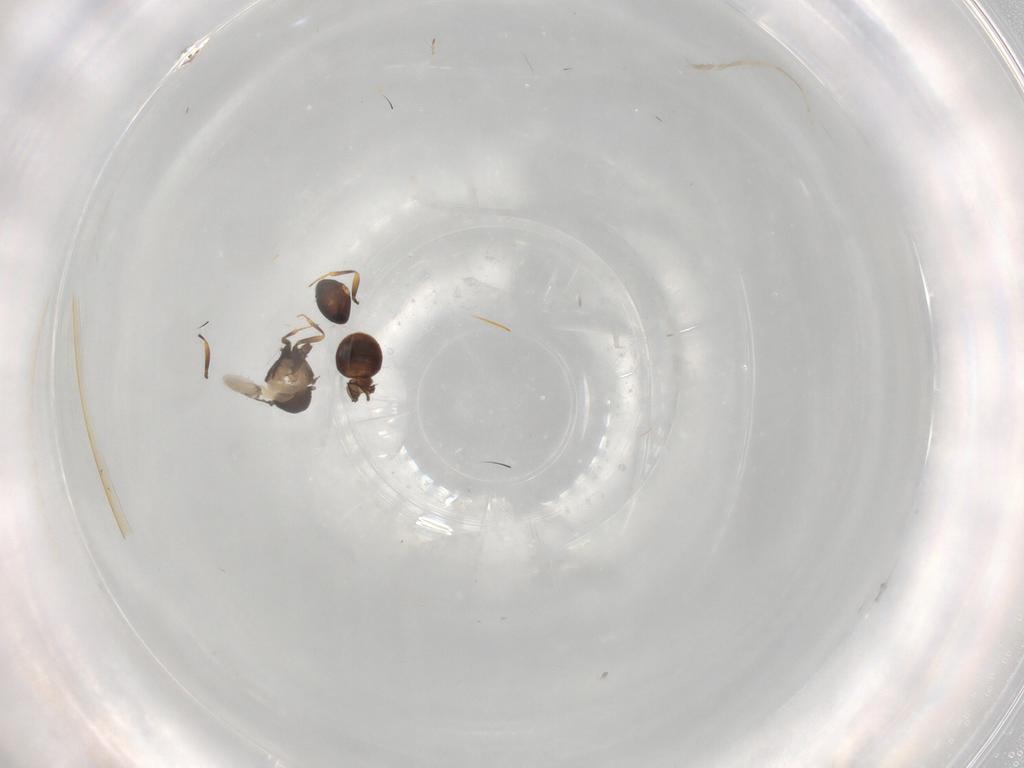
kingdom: Animalia
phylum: Arthropoda
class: Insecta
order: Hymenoptera
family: Scelionidae
